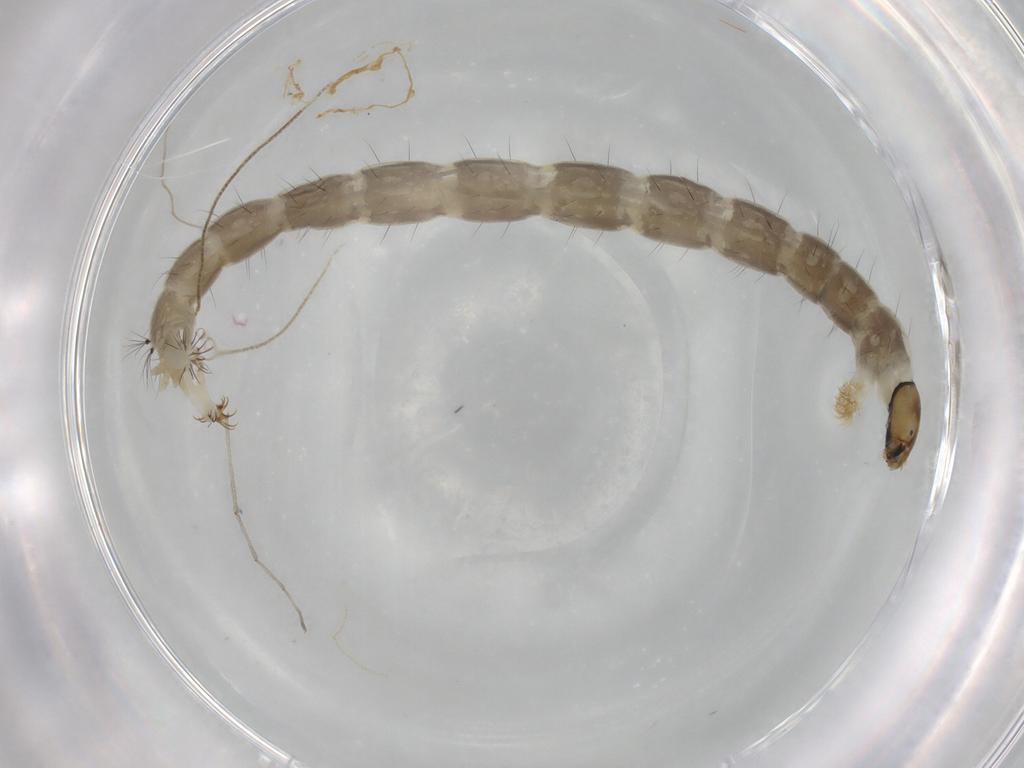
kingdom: Animalia
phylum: Arthropoda
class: Insecta
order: Diptera
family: Chironomidae
